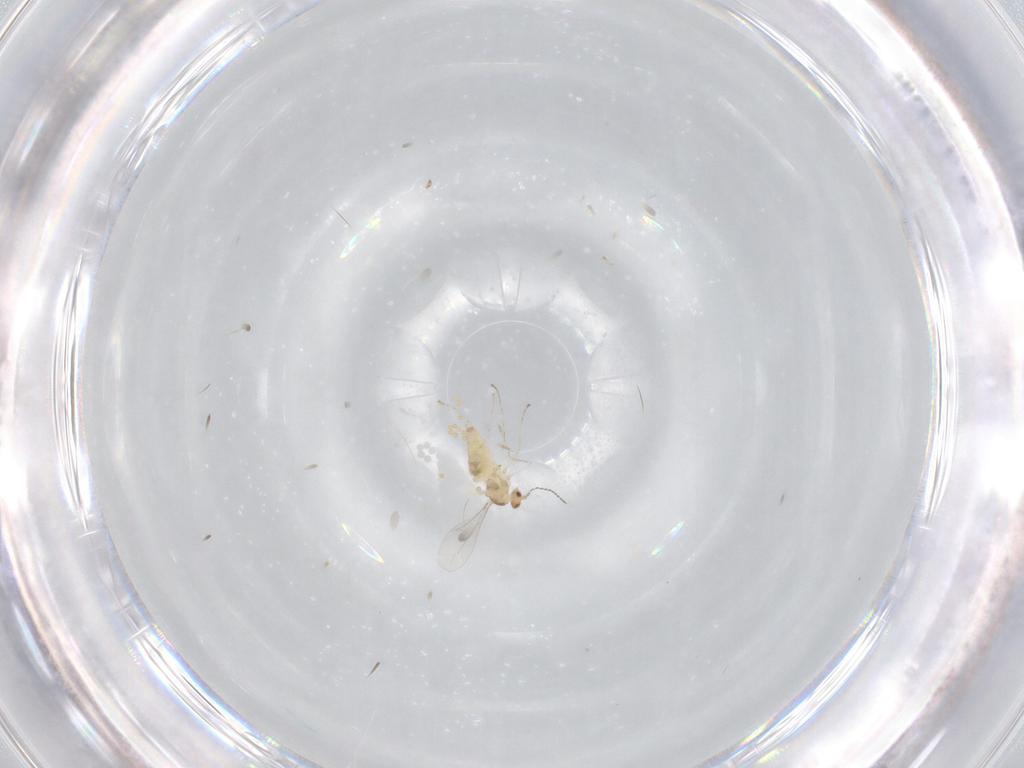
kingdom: Animalia
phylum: Arthropoda
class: Insecta
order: Diptera
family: Cecidomyiidae
